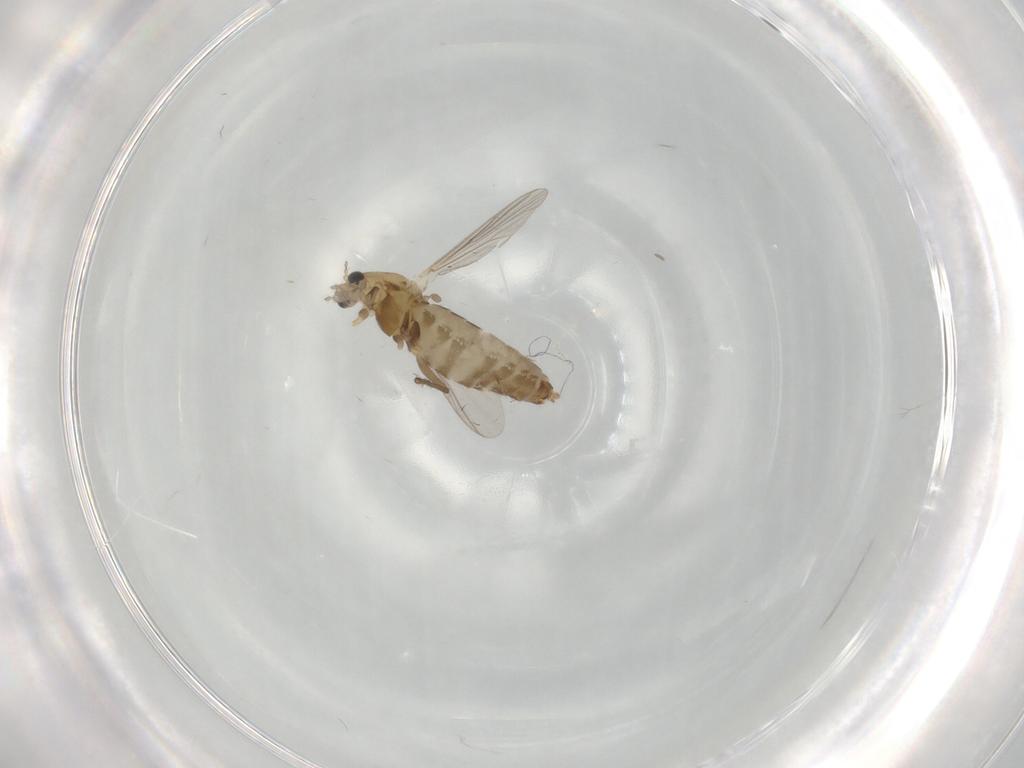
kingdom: Animalia
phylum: Arthropoda
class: Insecta
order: Diptera
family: Chironomidae
